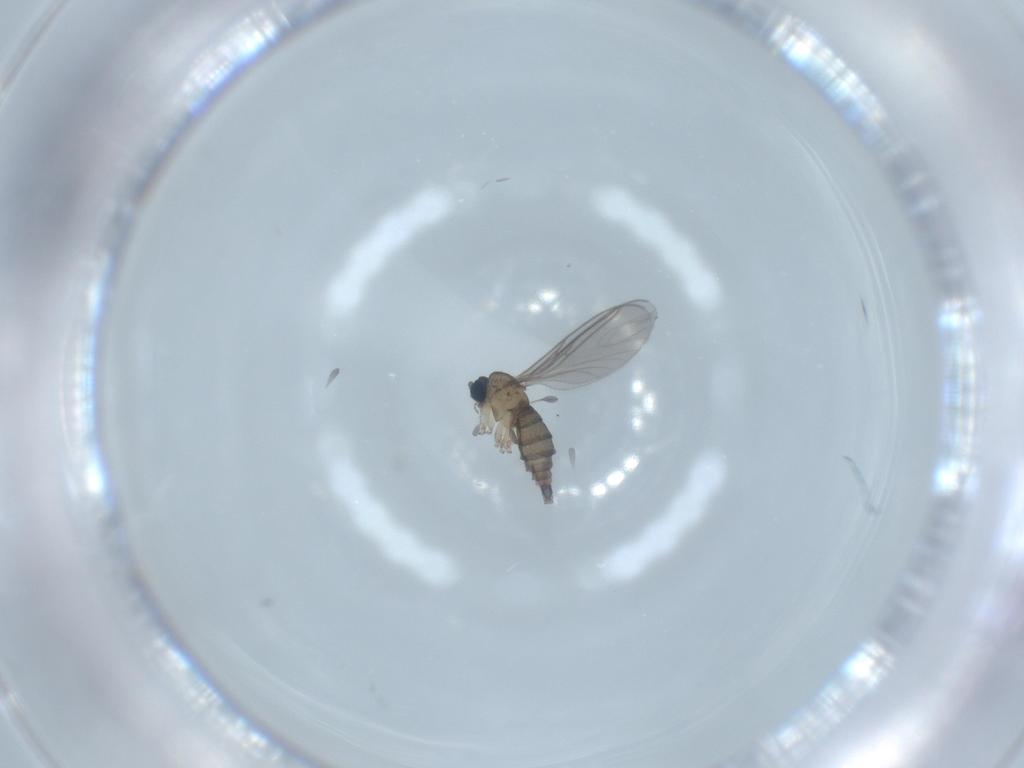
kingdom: Animalia
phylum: Arthropoda
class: Insecta
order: Diptera
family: Sciaridae
